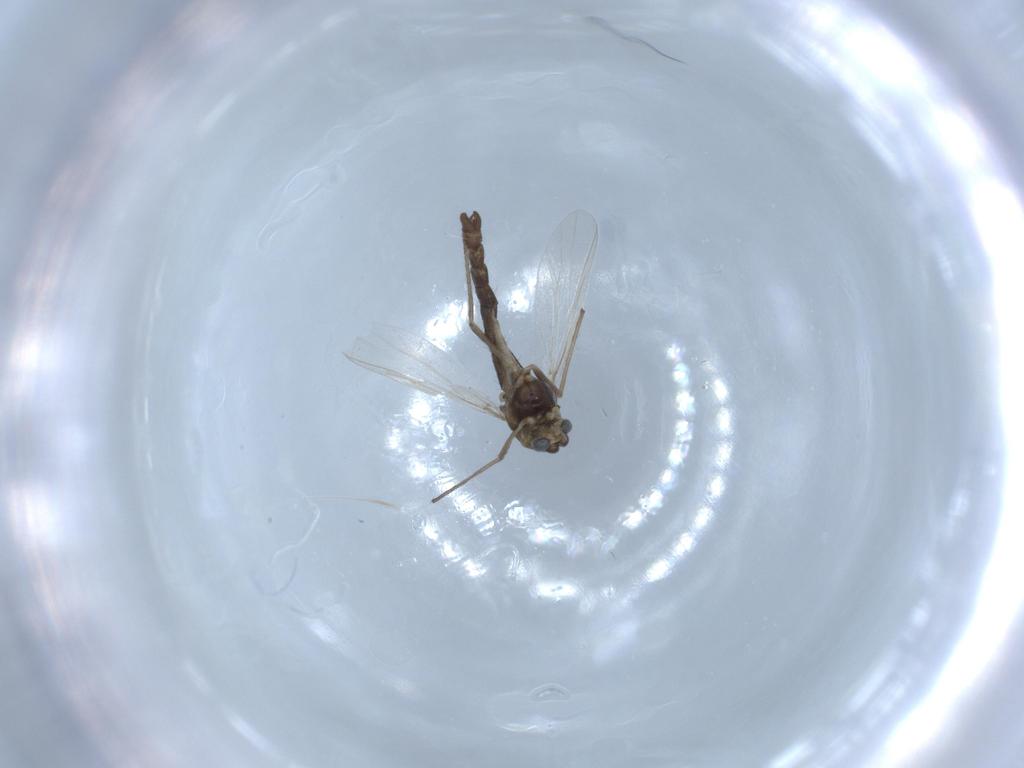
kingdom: Animalia
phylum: Arthropoda
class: Insecta
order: Diptera
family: Chironomidae
